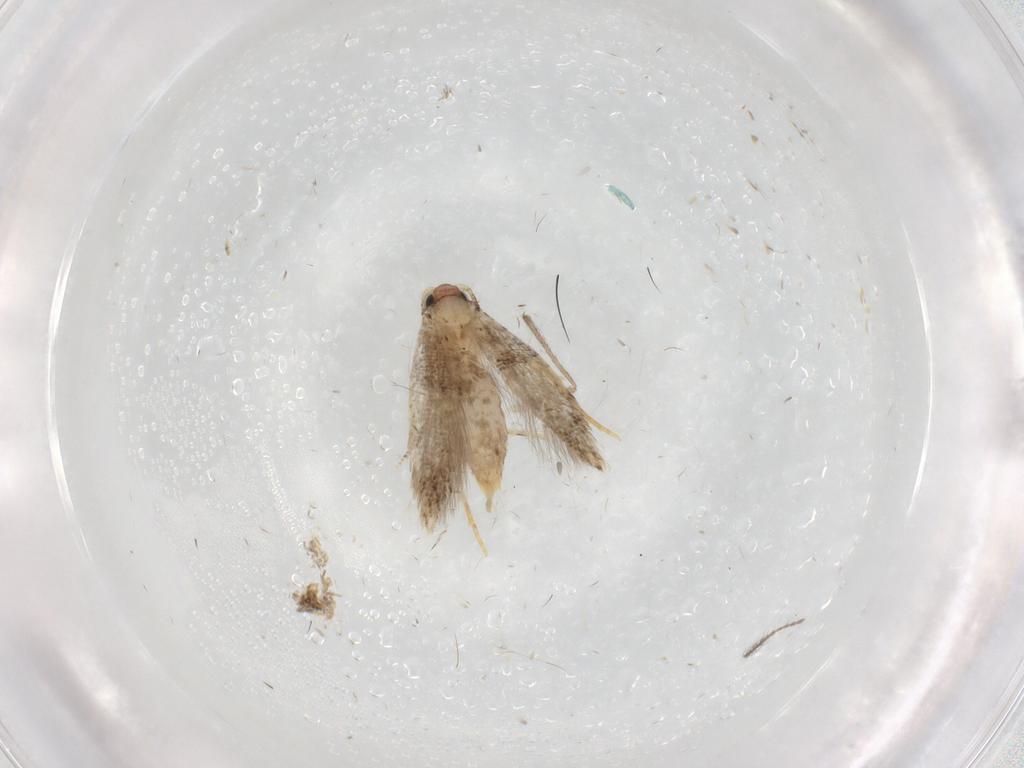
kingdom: Animalia
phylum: Arthropoda
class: Insecta
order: Lepidoptera
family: Tineidae
